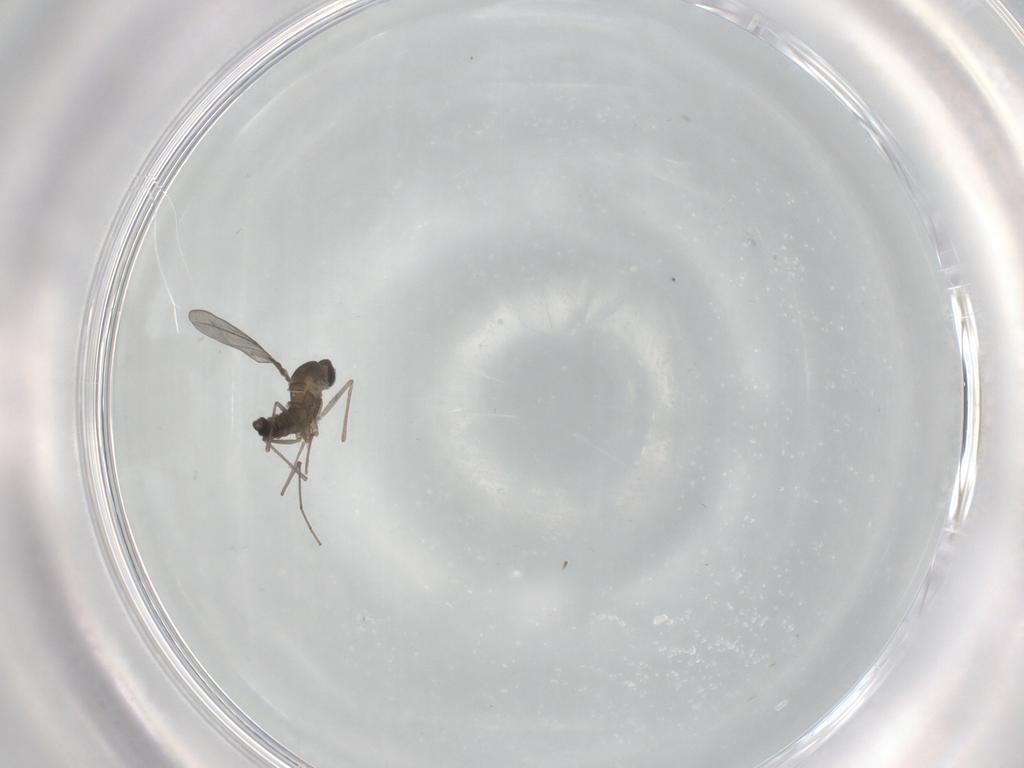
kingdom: Animalia
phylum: Arthropoda
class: Insecta
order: Diptera
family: Cecidomyiidae
